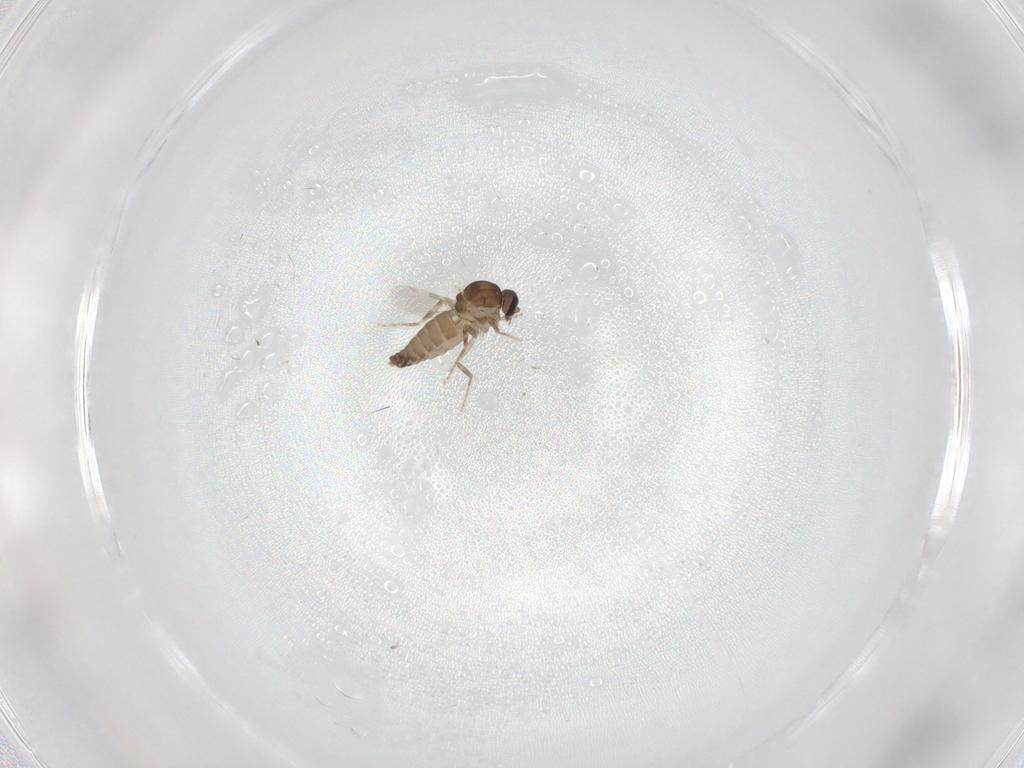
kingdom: Animalia
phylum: Arthropoda
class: Insecta
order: Diptera
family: Ceratopogonidae
